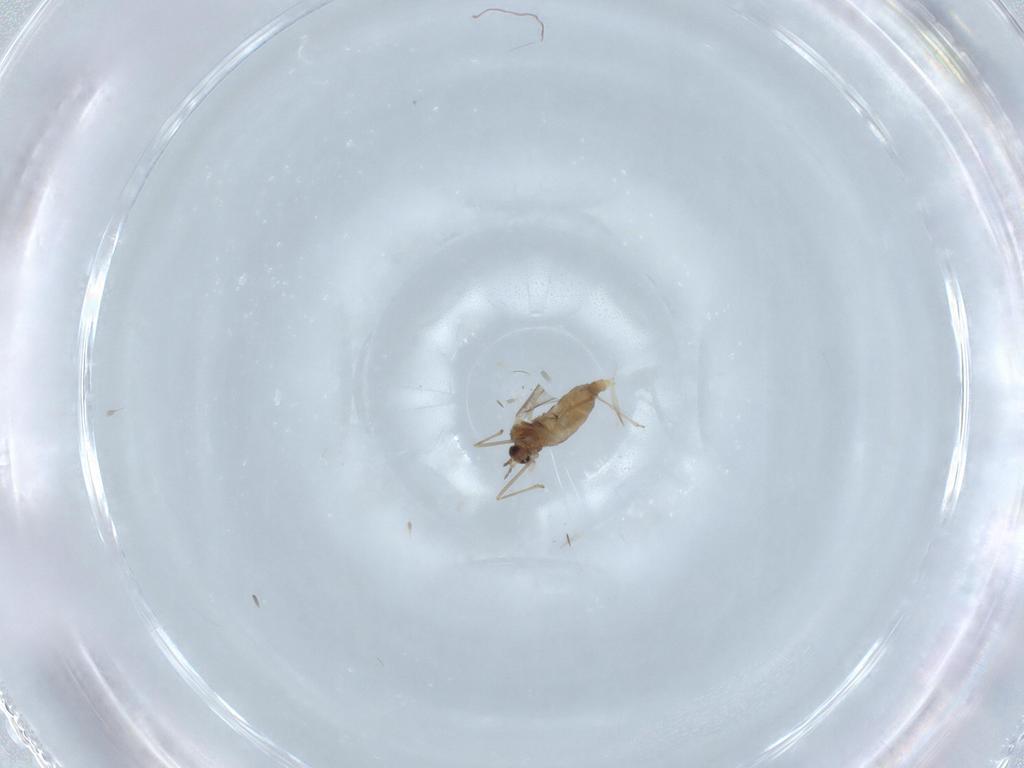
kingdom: Animalia
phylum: Arthropoda
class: Insecta
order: Diptera
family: Cecidomyiidae
